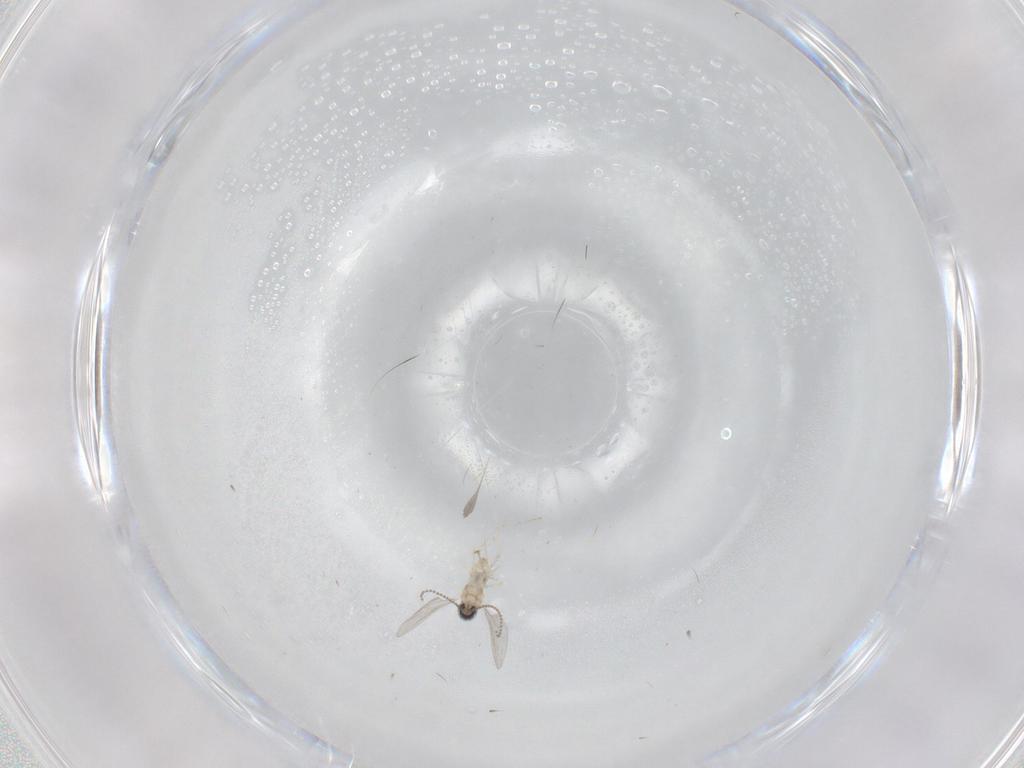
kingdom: Animalia
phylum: Arthropoda
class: Insecta
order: Diptera
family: Cecidomyiidae
